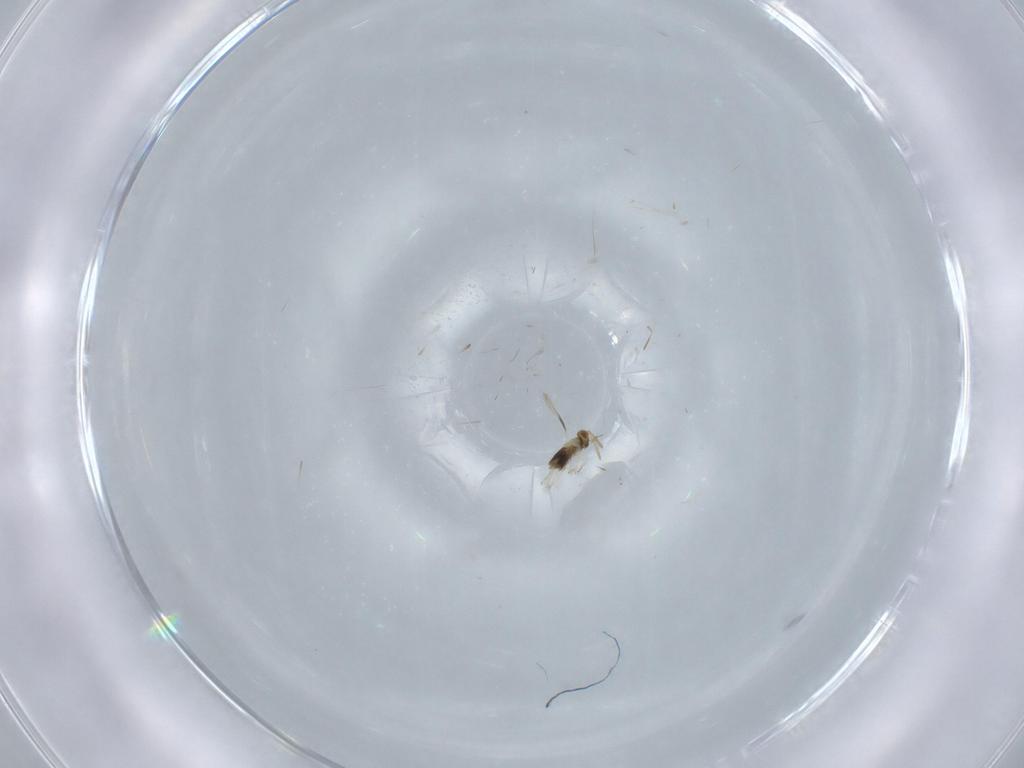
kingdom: Animalia
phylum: Arthropoda
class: Insecta
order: Hymenoptera
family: Aphelinidae
